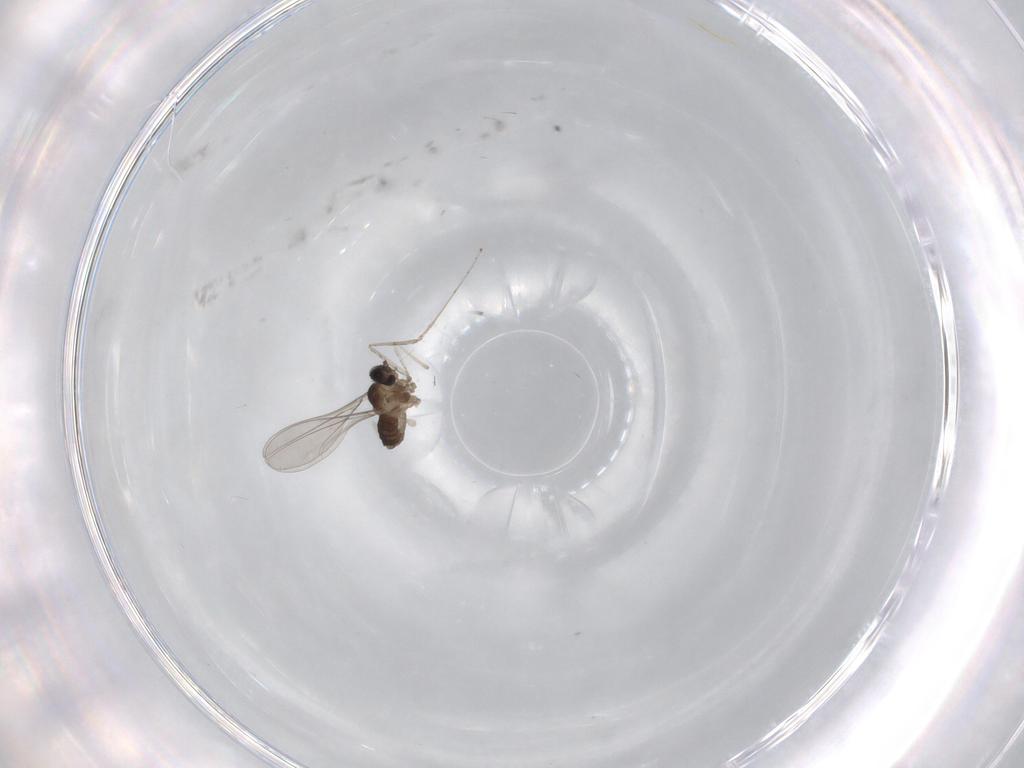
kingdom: Animalia
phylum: Arthropoda
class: Insecta
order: Diptera
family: Cecidomyiidae
